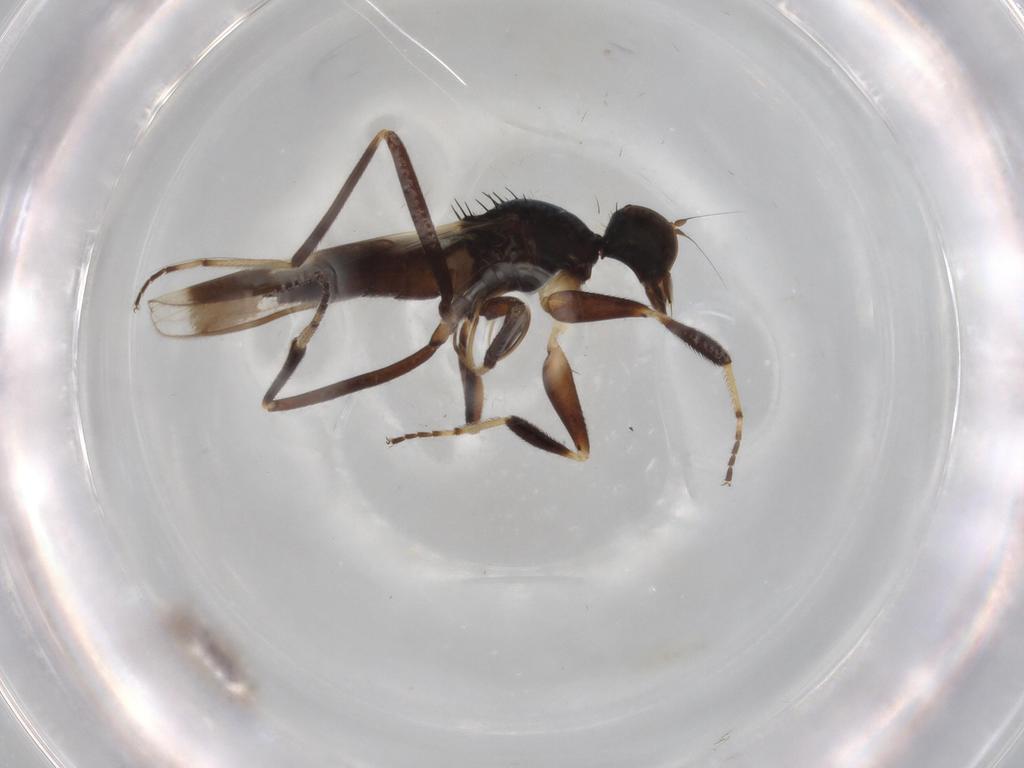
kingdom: Animalia
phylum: Arthropoda
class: Insecta
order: Diptera
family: Hybotidae
